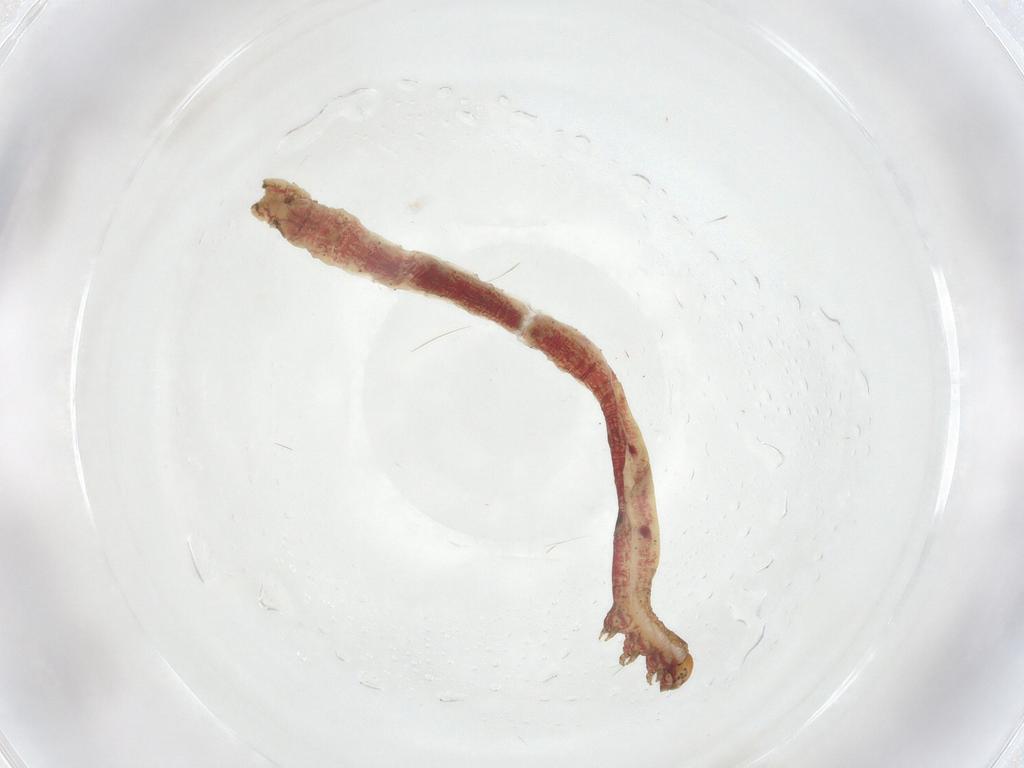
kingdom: Animalia
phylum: Arthropoda
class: Insecta
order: Lepidoptera
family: Geometridae
